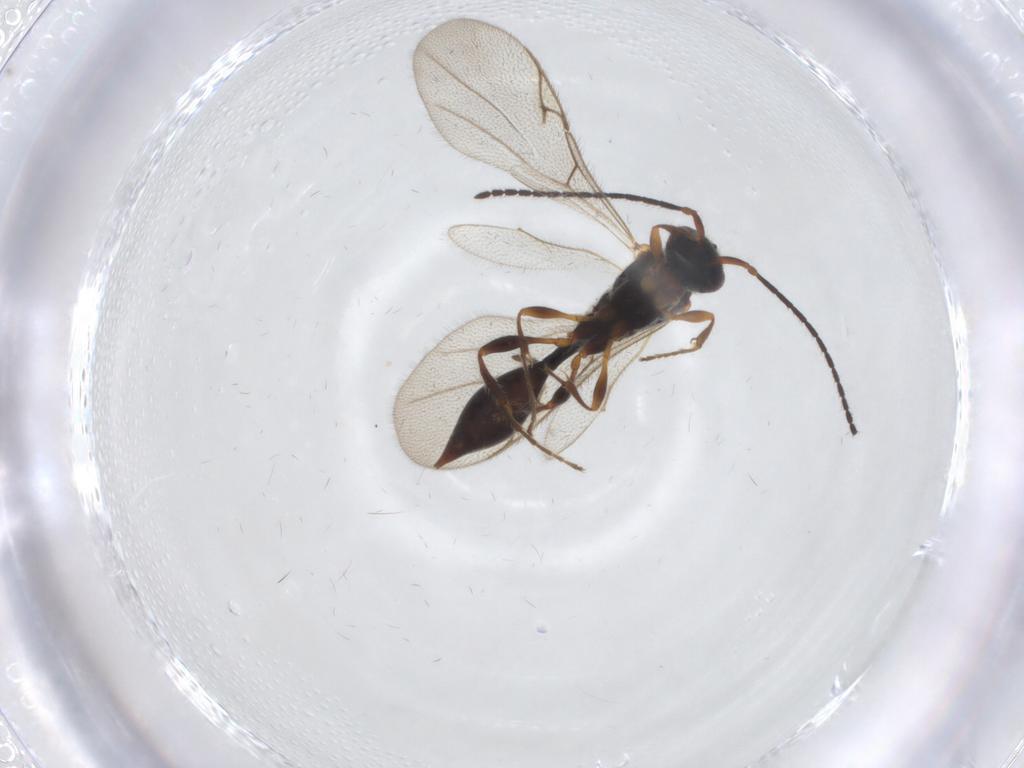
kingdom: Animalia
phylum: Arthropoda
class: Insecta
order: Hymenoptera
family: Diapriidae
